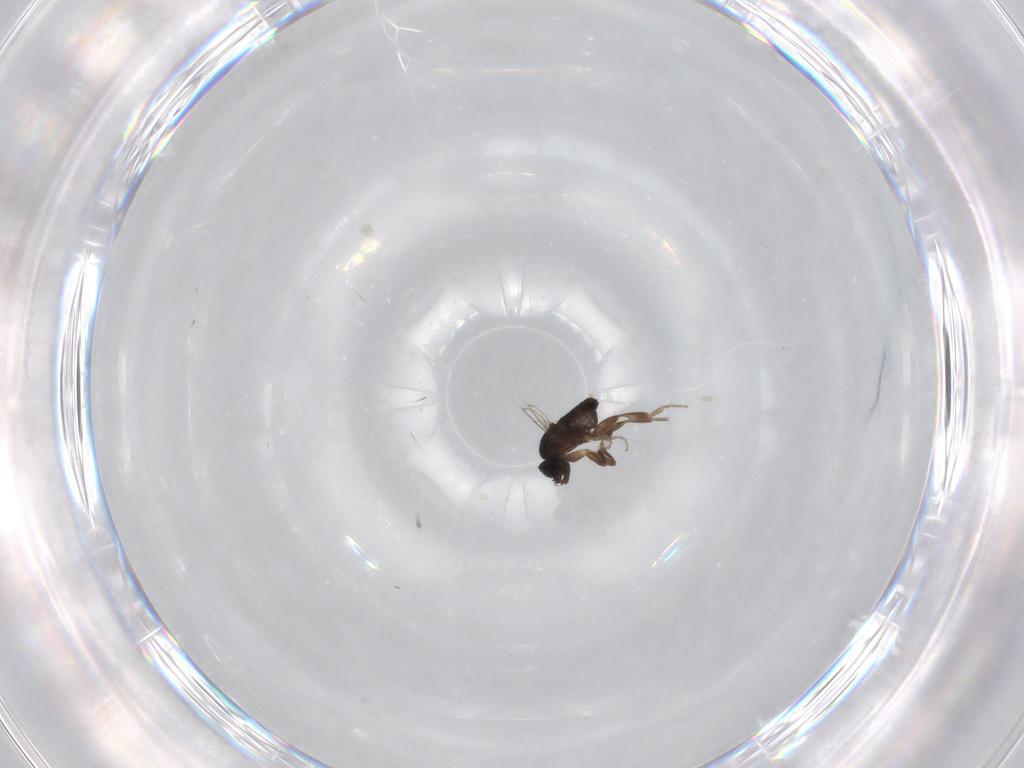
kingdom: Animalia
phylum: Arthropoda
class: Insecta
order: Diptera
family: Phoridae
